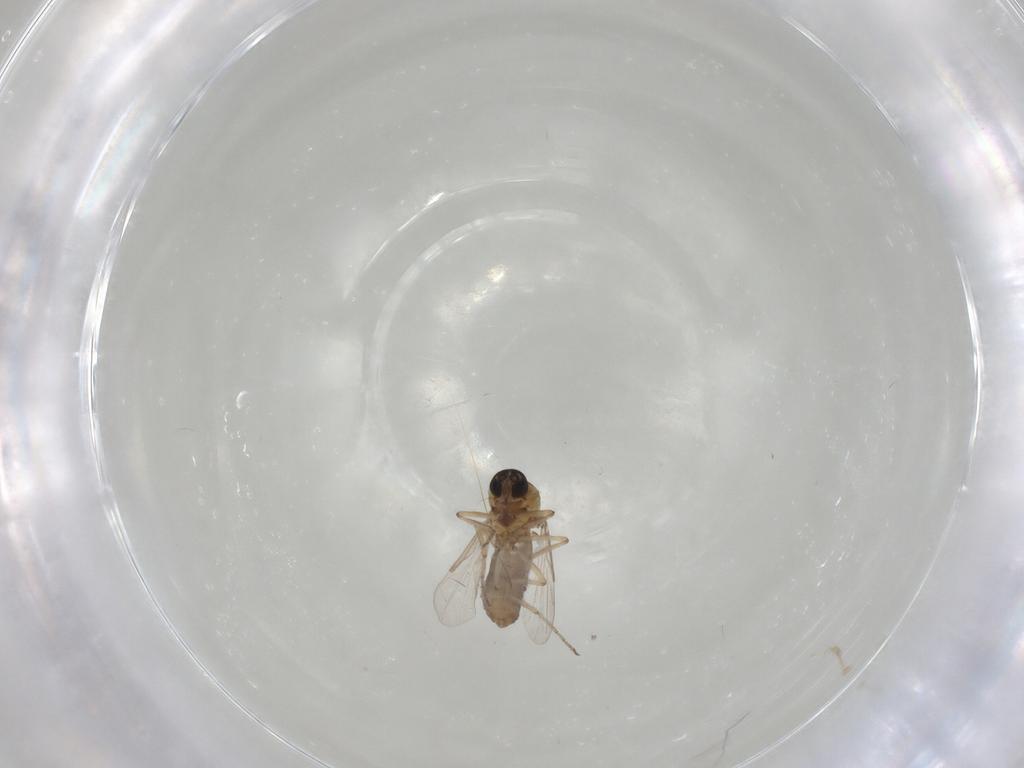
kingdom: Animalia
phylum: Arthropoda
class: Insecta
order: Diptera
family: Ceratopogonidae
